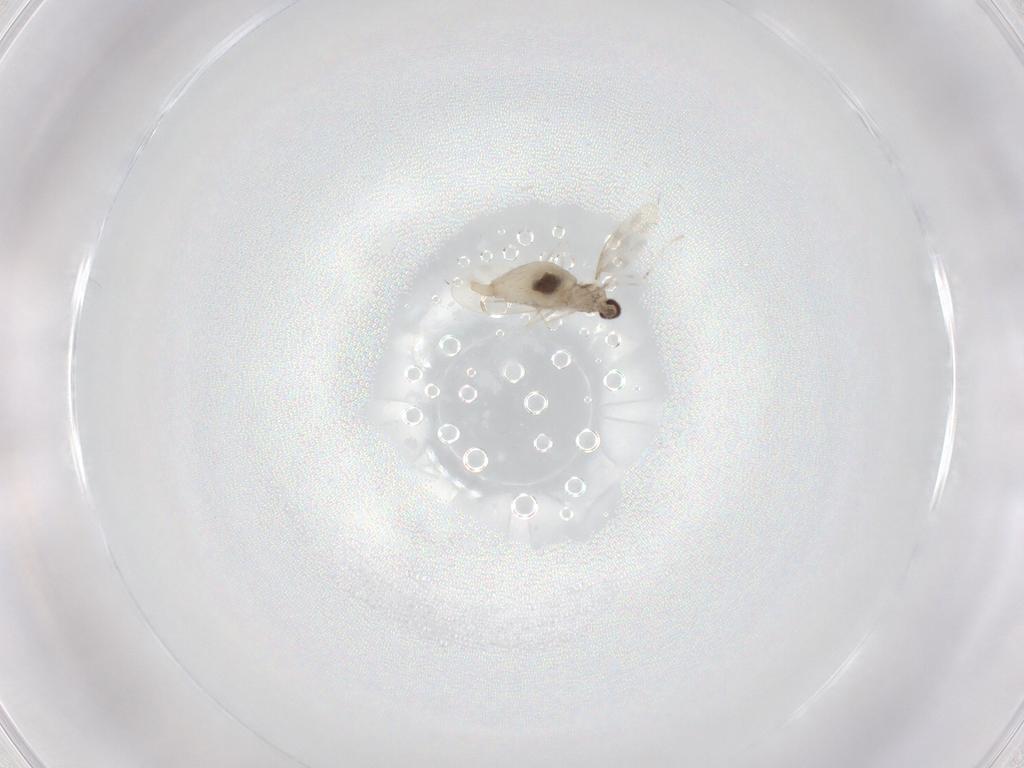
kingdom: Animalia
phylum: Arthropoda
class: Insecta
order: Diptera
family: Cecidomyiidae
